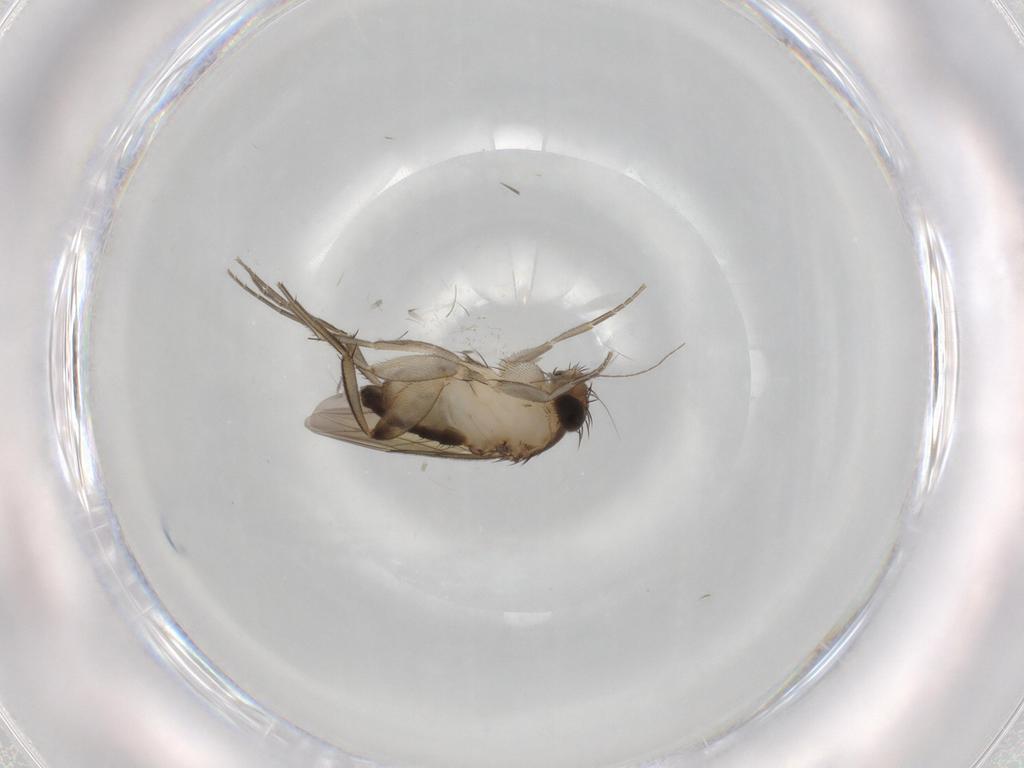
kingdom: Animalia
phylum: Arthropoda
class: Insecta
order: Diptera
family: Phoridae
